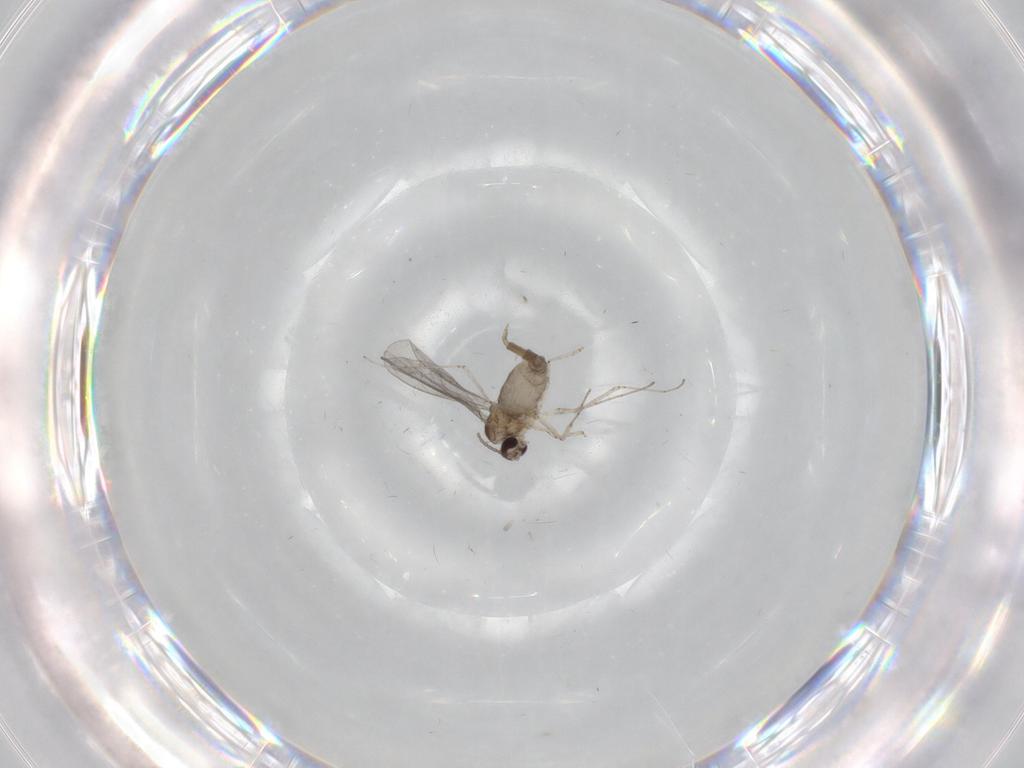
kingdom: Animalia
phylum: Arthropoda
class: Insecta
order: Diptera
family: Cecidomyiidae
